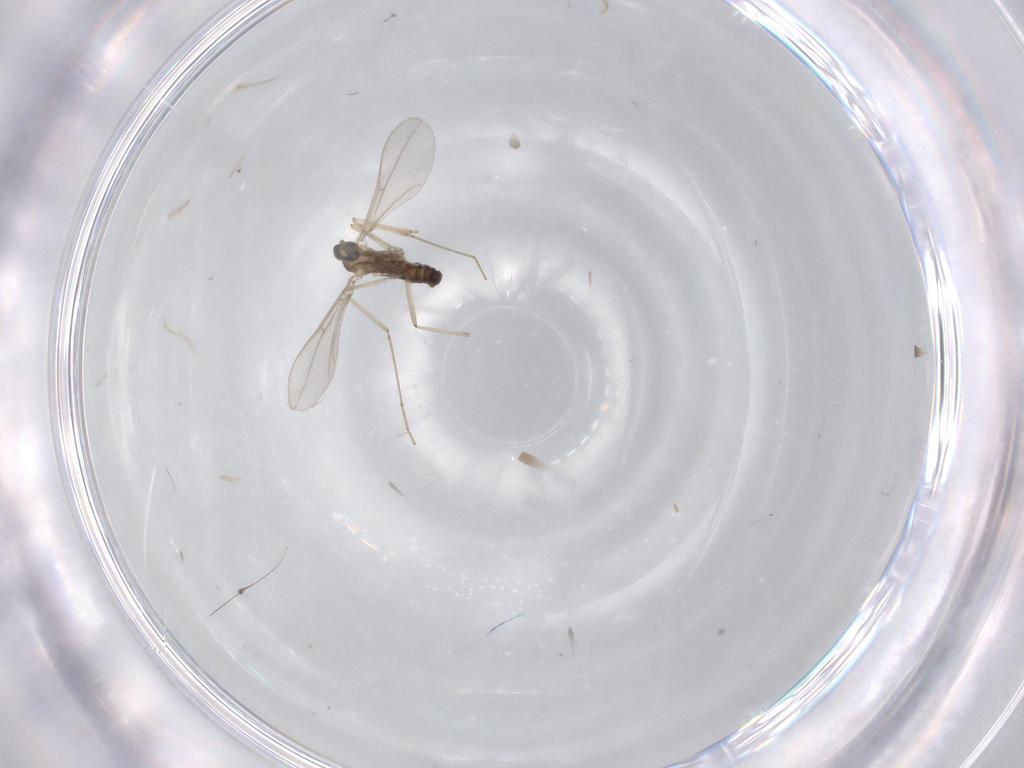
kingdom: Animalia
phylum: Arthropoda
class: Insecta
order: Diptera
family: Cecidomyiidae
